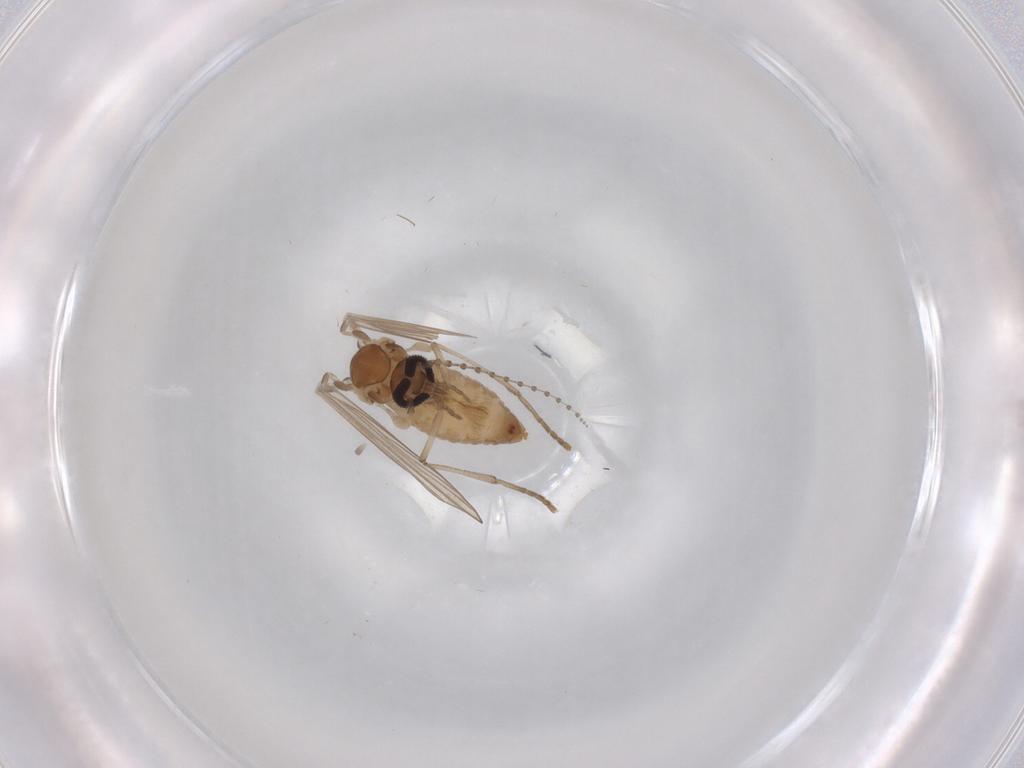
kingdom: Animalia
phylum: Arthropoda
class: Insecta
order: Diptera
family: Psychodidae
